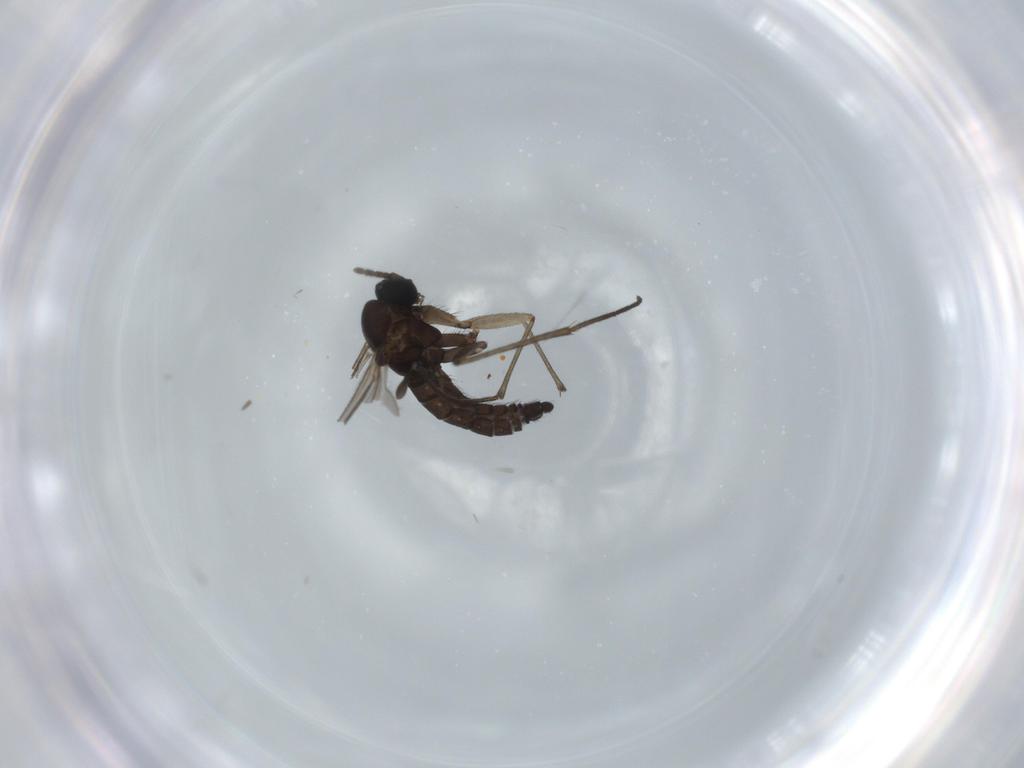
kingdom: Animalia
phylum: Arthropoda
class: Insecta
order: Diptera
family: Sciaridae
